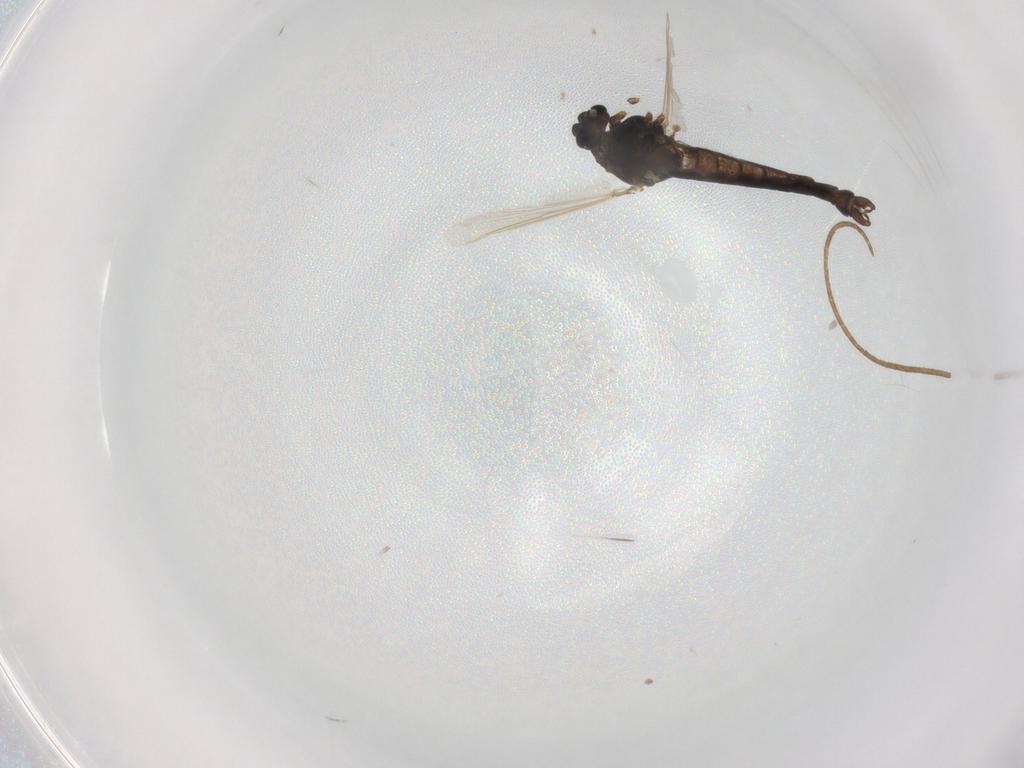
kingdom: Animalia
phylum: Arthropoda
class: Insecta
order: Diptera
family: Chironomidae
